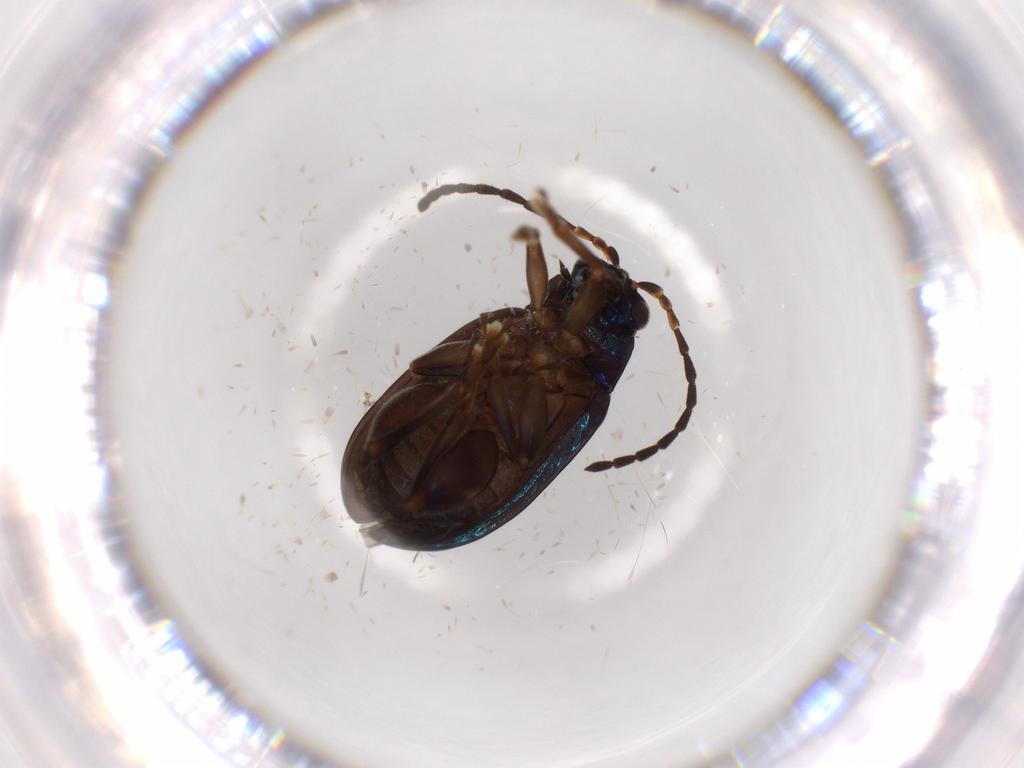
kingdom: Animalia
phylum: Arthropoda
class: Insecta
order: Coleoptera
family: Chrysomelidae
